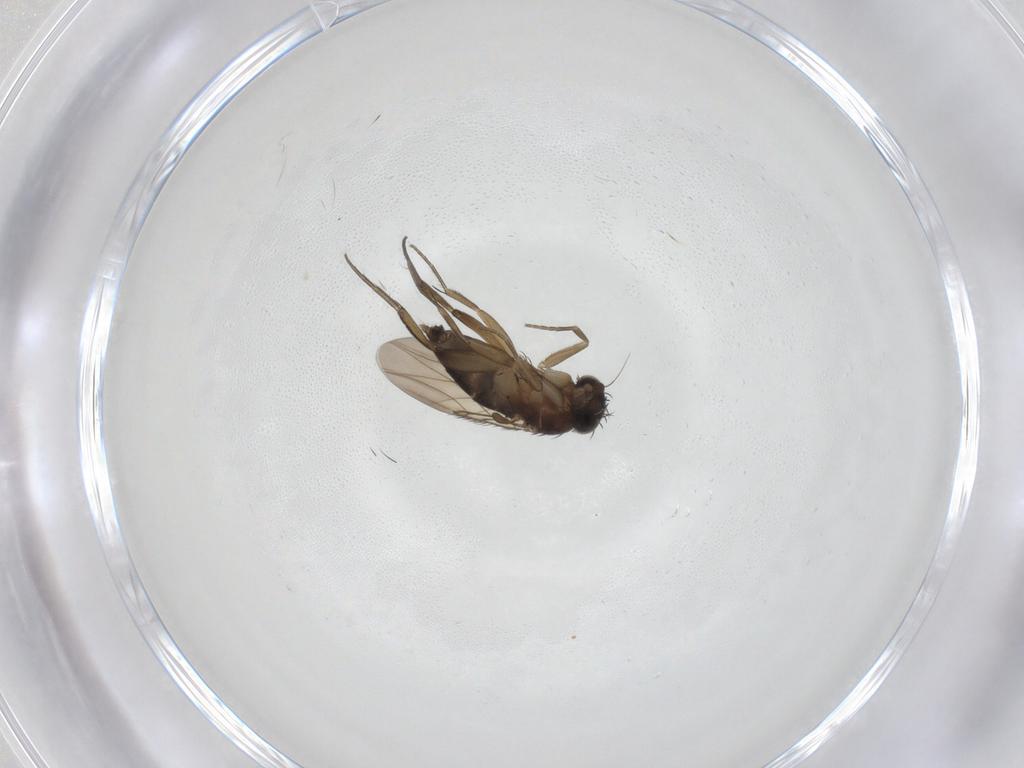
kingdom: Animalia
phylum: Arthropoda
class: Insecta
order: Diptera
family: Phoridae
